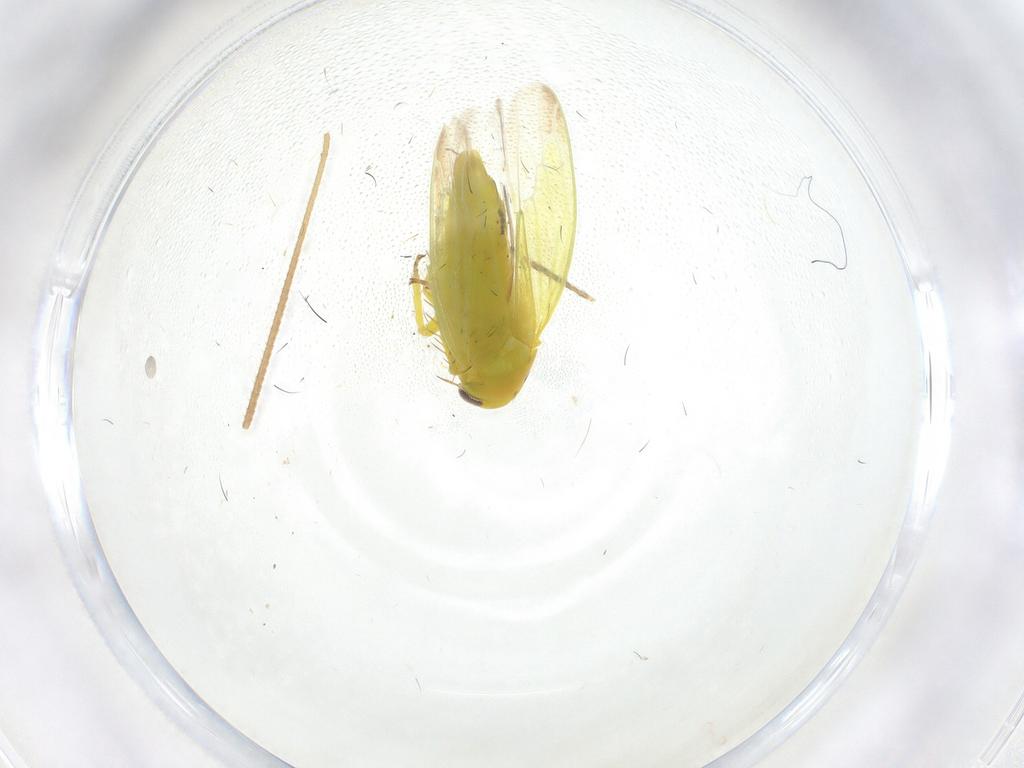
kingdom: Animalia
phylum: Arthropoda
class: Insecta
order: Hemiptera
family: Cicadellidae
